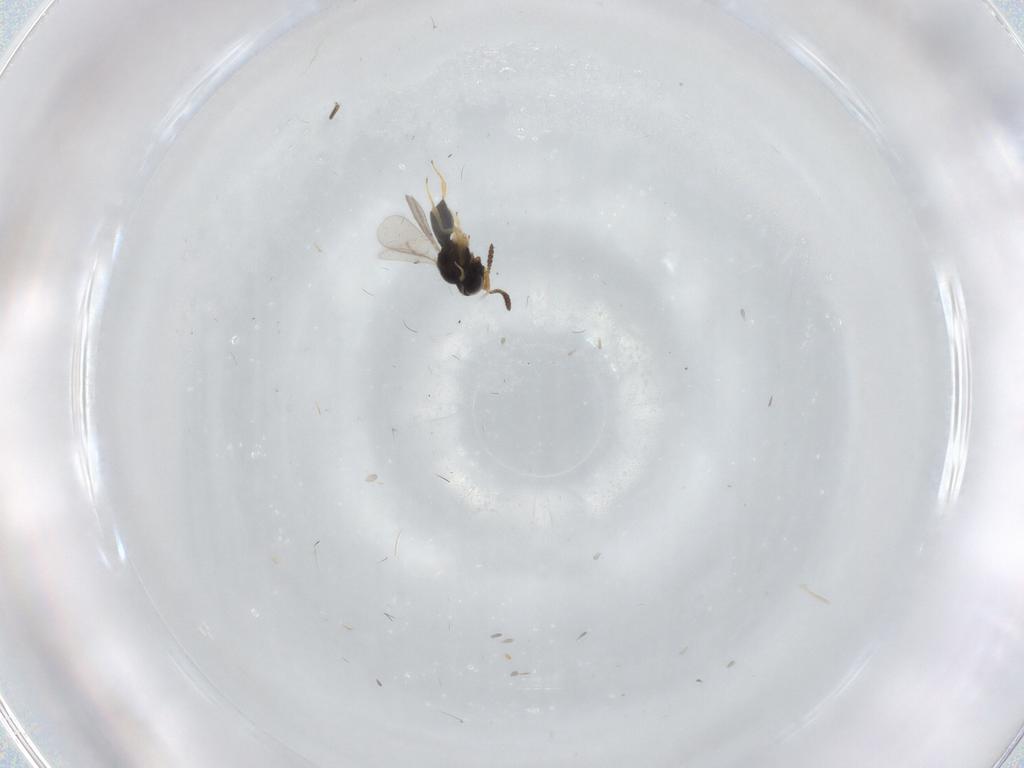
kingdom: Animalia
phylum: Arthropoda
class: Insecta
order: Hymenoptera
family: Scelionidae
